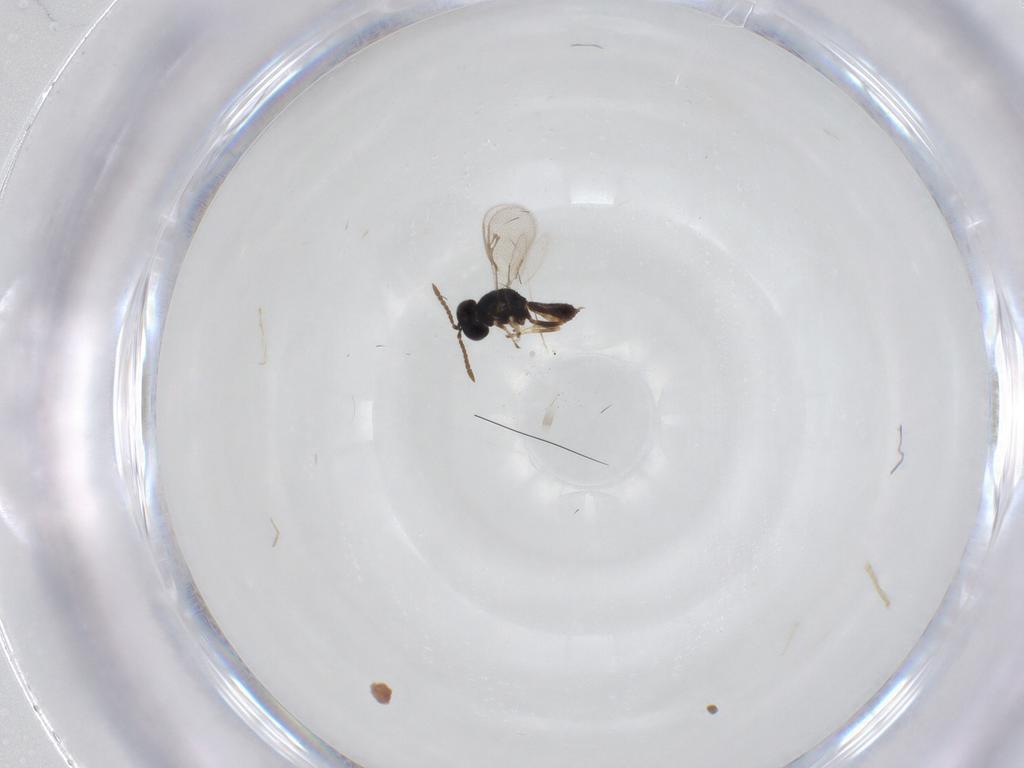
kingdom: Animalia
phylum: Arthropoda
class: Insecta
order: Hymenoptera
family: Pteromalidae
